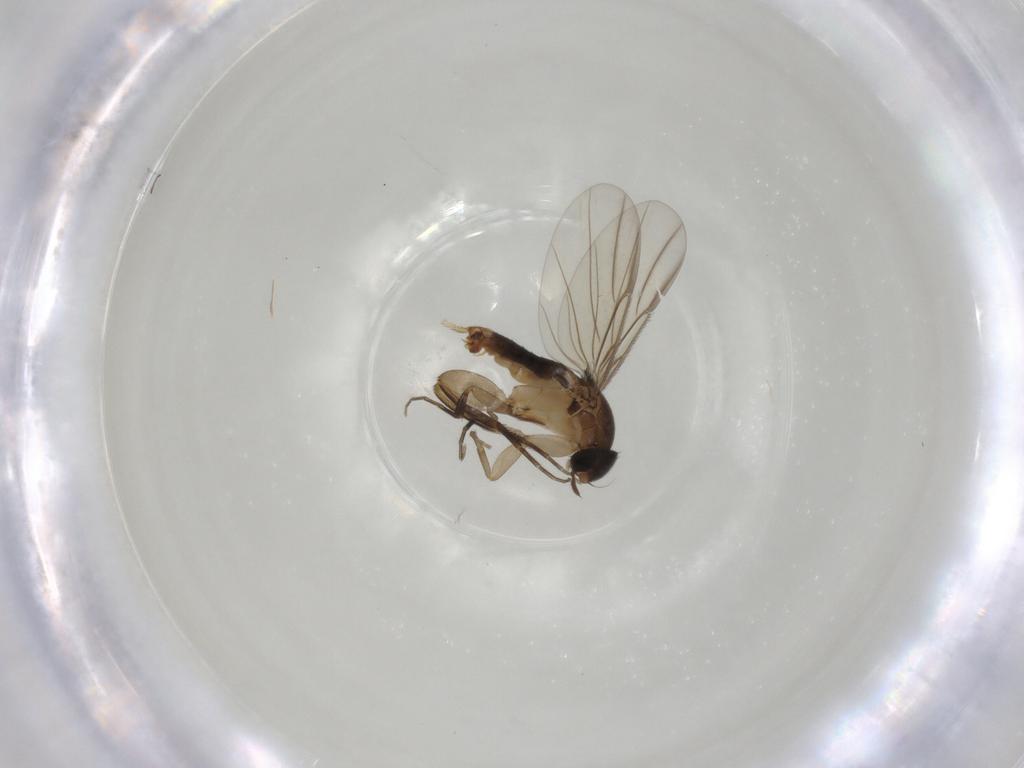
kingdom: Animalia
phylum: Arthropoda
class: Insecta
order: Diptera
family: Phoridae
